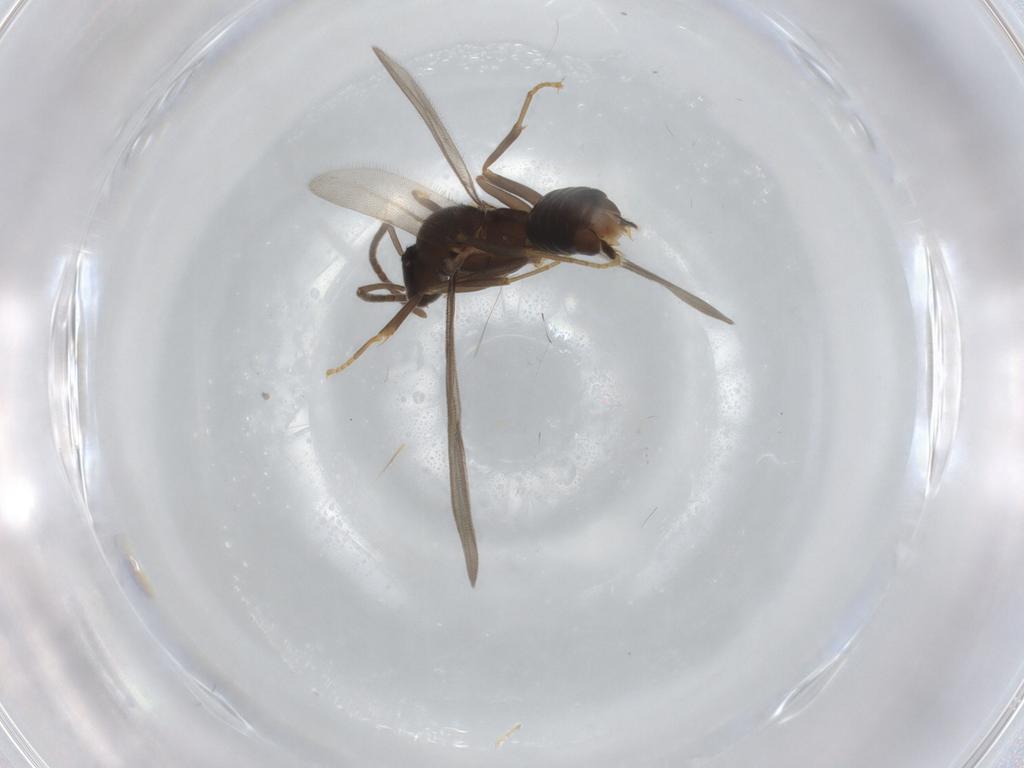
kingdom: Animalia
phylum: Arthropoda
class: Insecta
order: Hymenoptera
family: Formicidae
